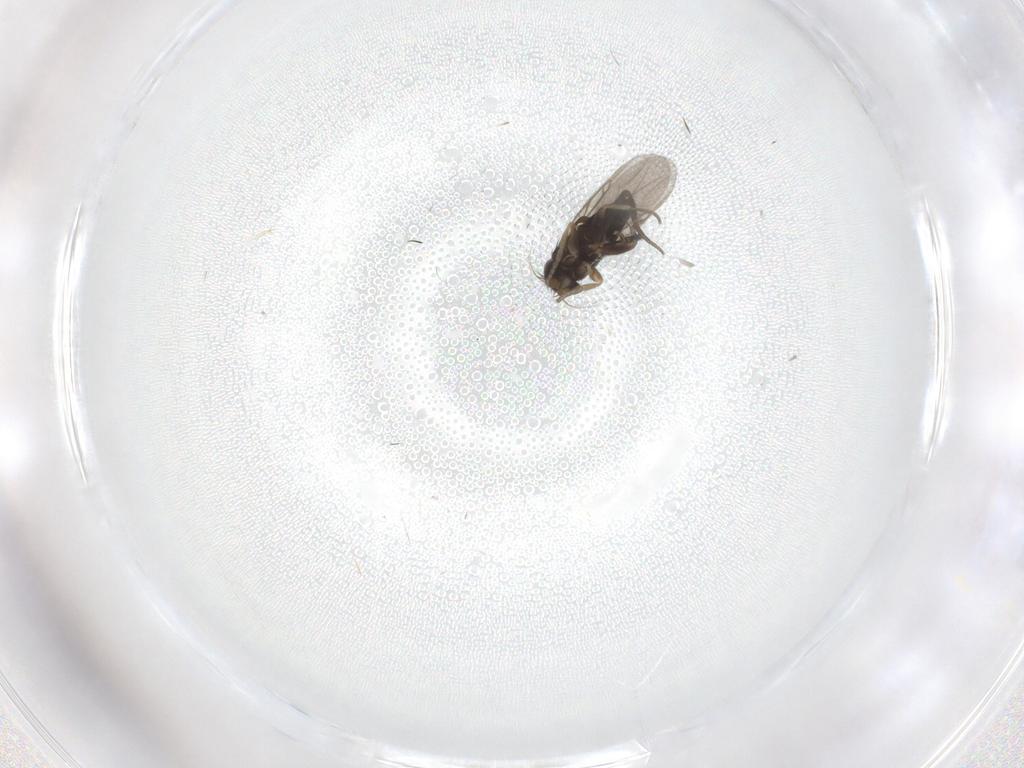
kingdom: Animalia
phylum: Arthropoda
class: Insecta
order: Diptera
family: Phoridae
